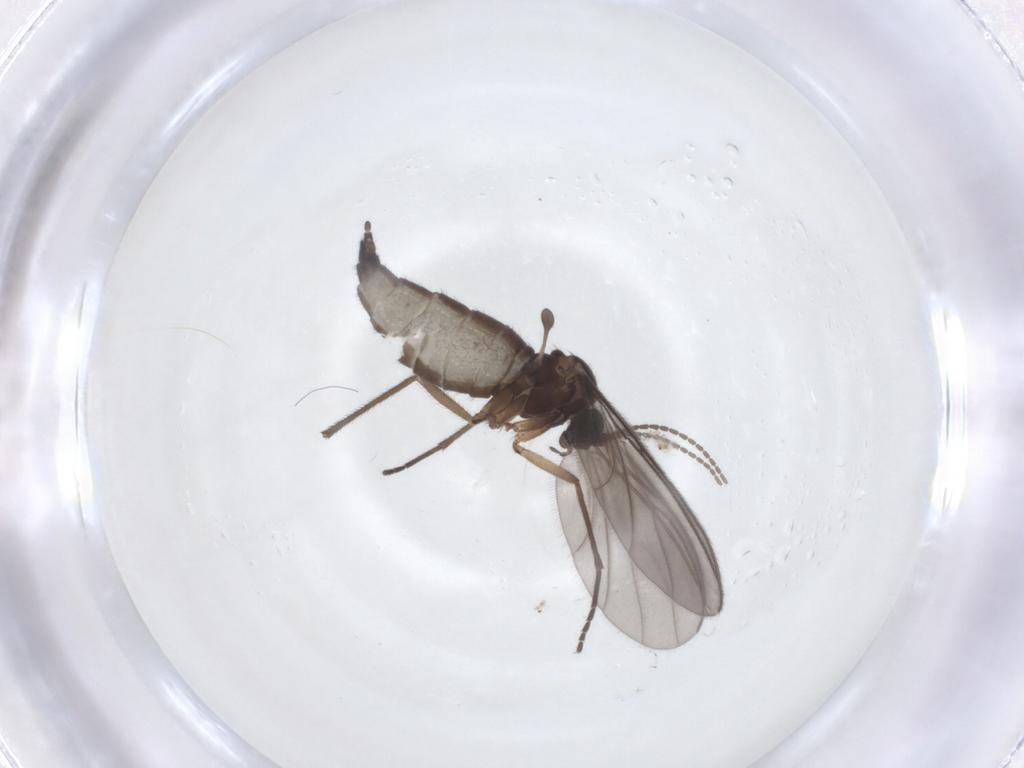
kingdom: Animalia
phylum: Arthropoda
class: Insecta
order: Diptera
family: Sciaridae
